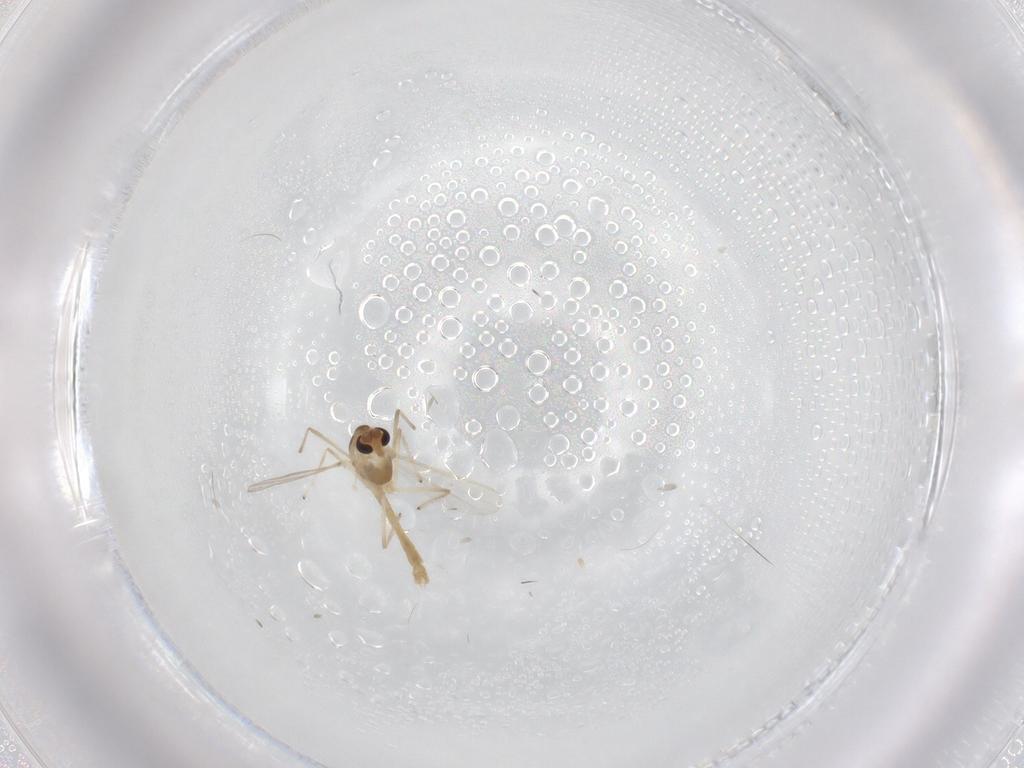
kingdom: Animalia
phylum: Arthropoda
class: Insecta
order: Diptera
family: Chironomidae
